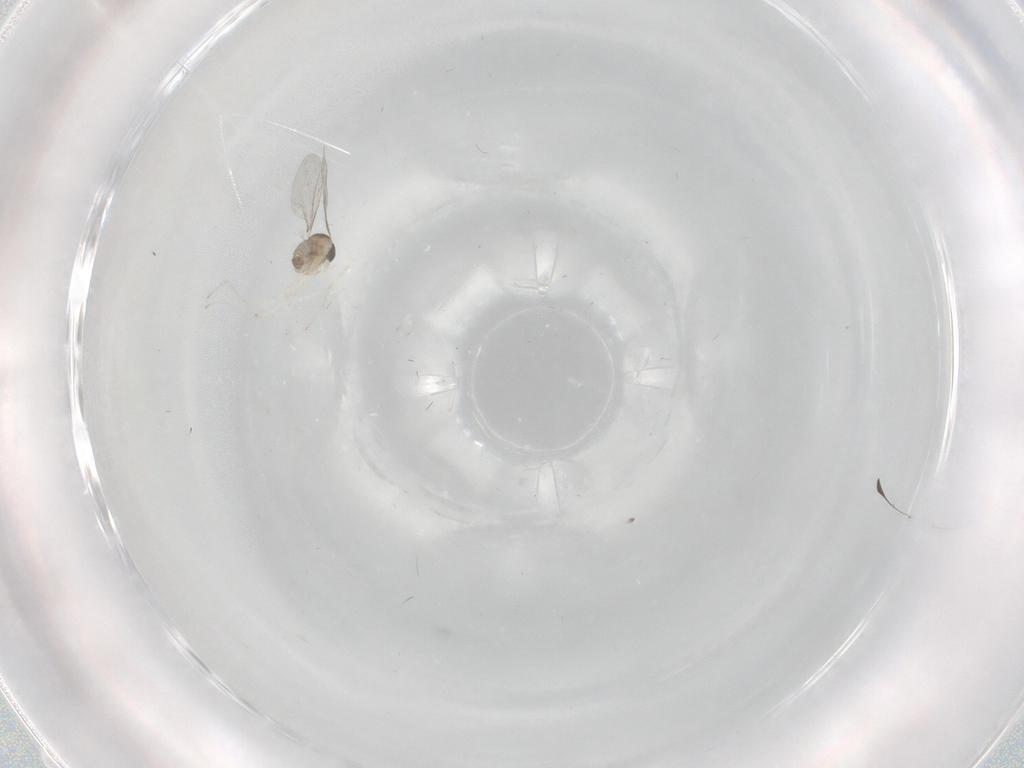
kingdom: Animalia
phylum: Arthropoda
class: Insecta
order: Diptera
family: Cecidomyiidae
